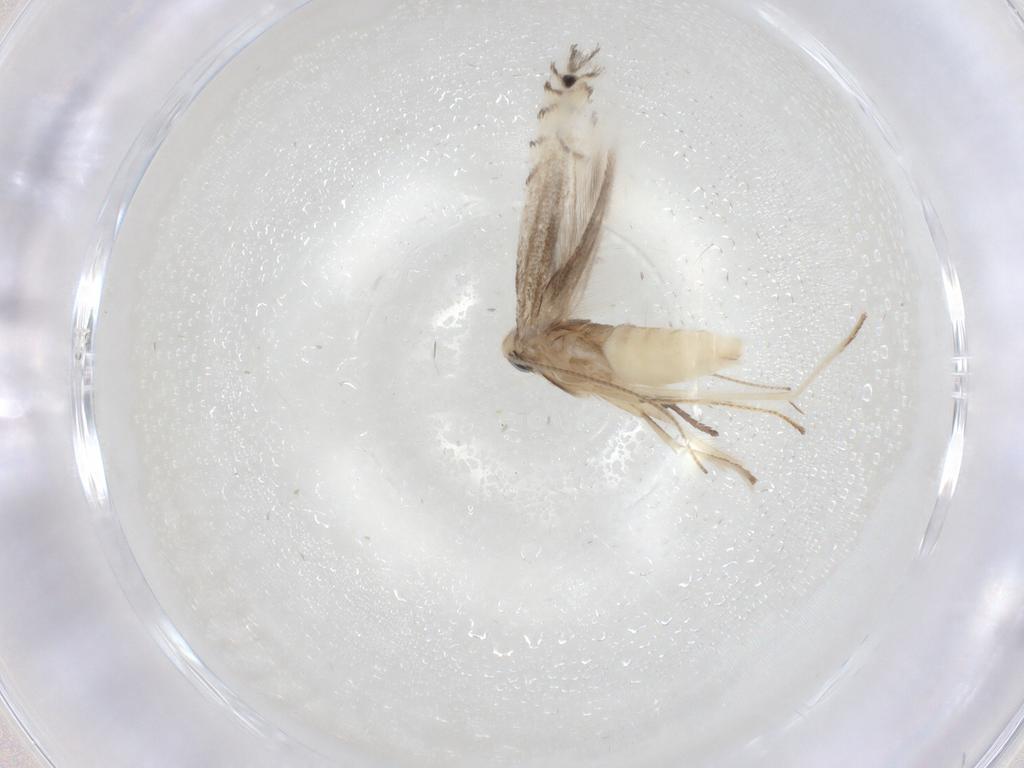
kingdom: Animalia
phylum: Arthropoda
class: Insecta
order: Lepidoptera
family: Gracillariidae
